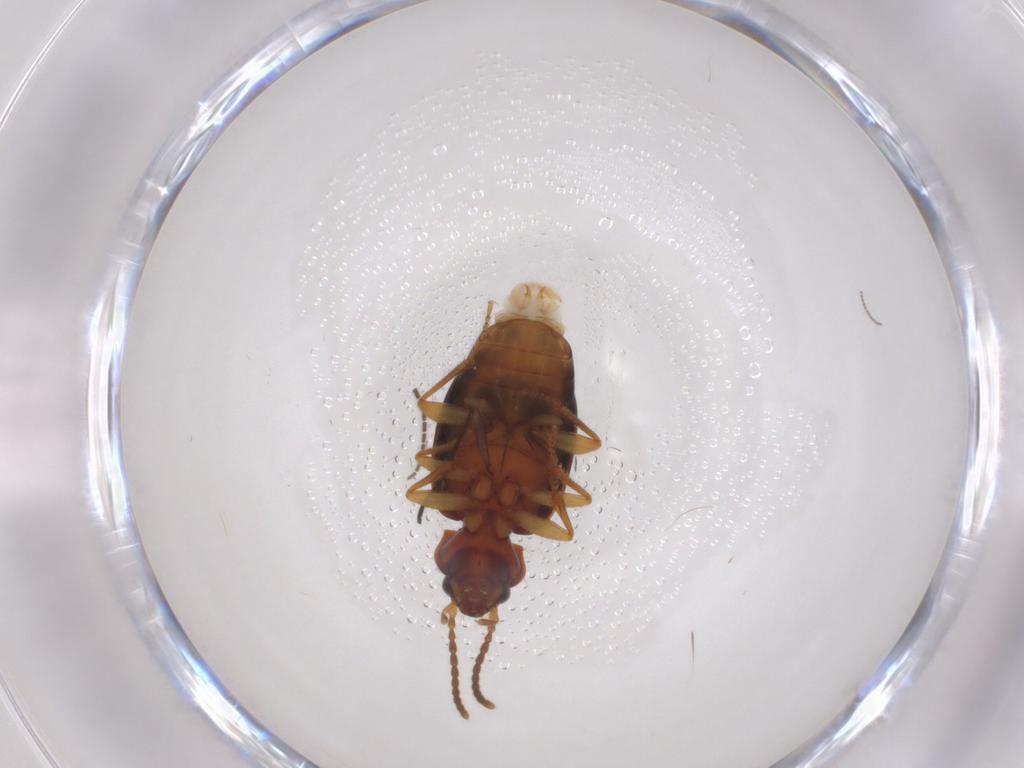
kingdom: Animalia
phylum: Arthropoda
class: Insecta
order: Coleoptera
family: Carabidae
